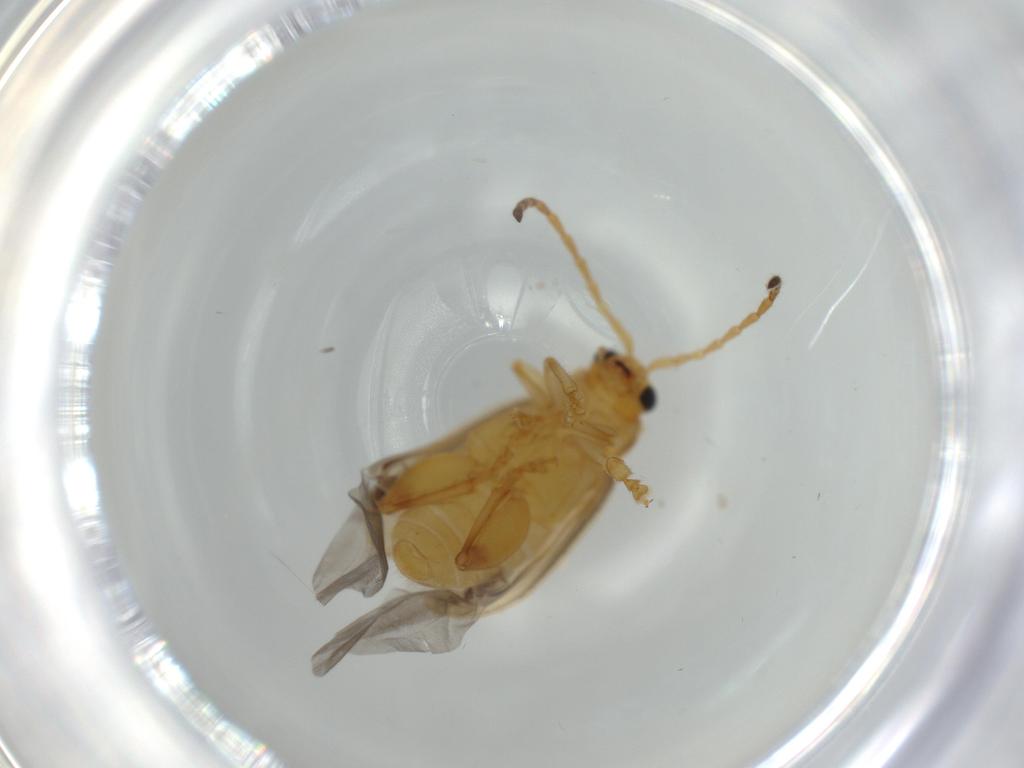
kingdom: Animalia
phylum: Arthropoda
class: Insecta
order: Coleoptera
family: Chrysomelidae
